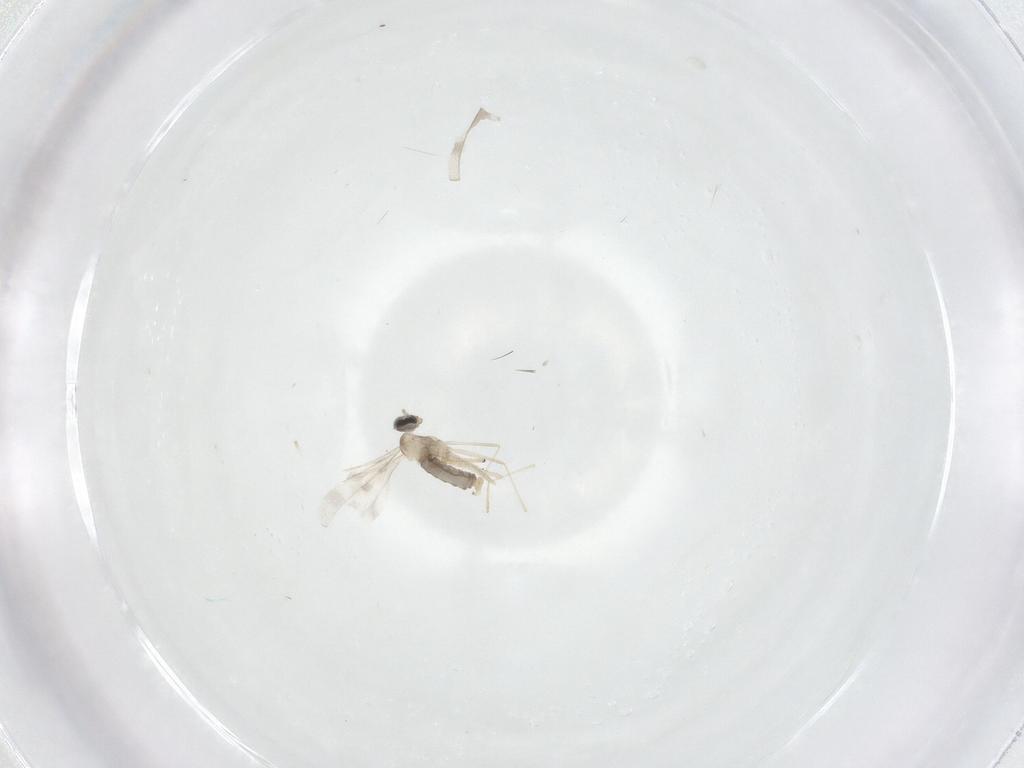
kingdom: Animalia
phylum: Arthropoda
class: Insecta
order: Diptera
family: Chironomidae
